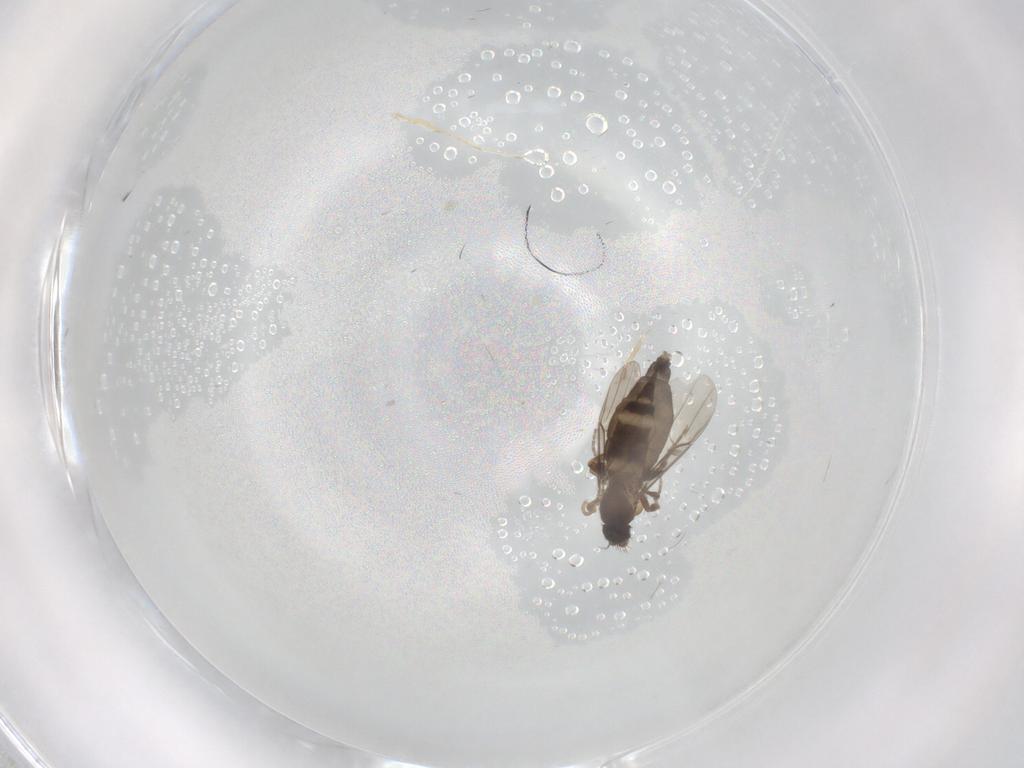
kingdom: Animalia
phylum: Arthropoda
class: Insecta
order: Diptera
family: Phoridae
